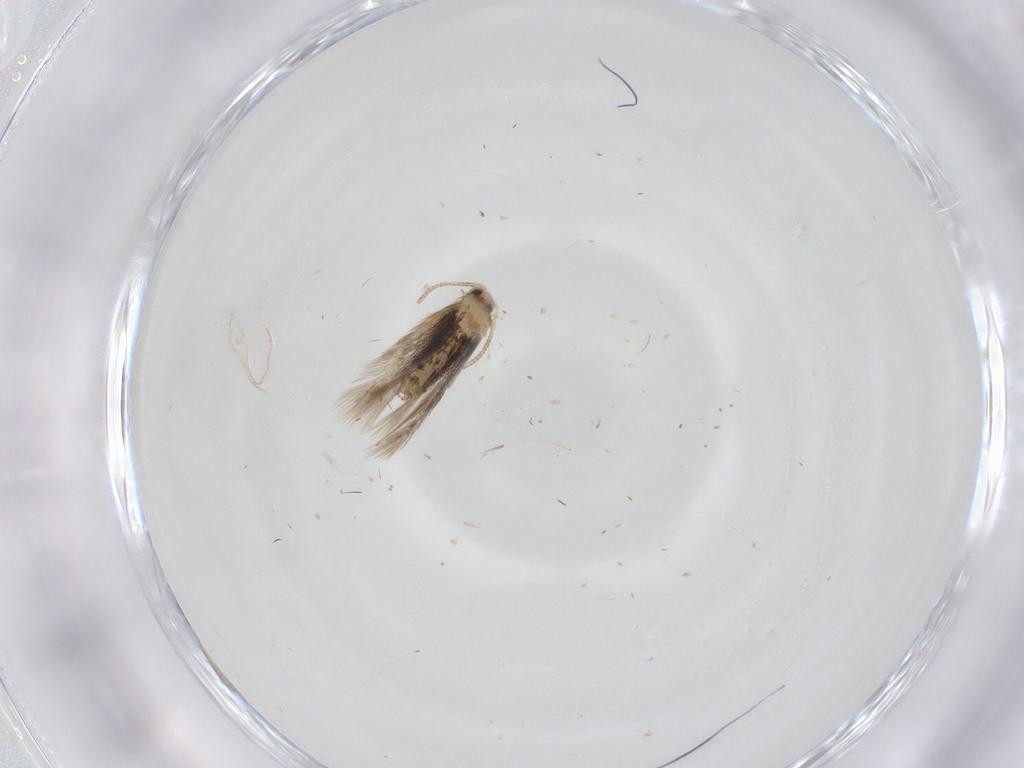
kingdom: Animalia
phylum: Arthropoda
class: Insecta
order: Lepidoptera
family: Nepticulidae
